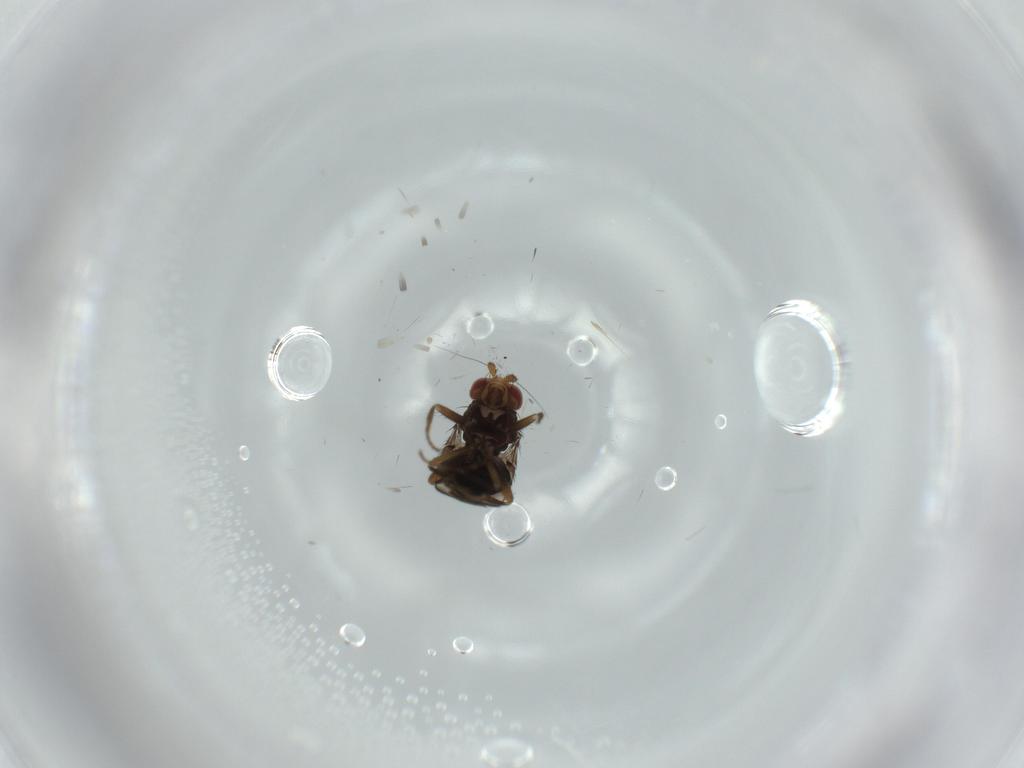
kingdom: Animalia
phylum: Arthropoda
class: Insecta
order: Diptera
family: Sphaeroceridae
